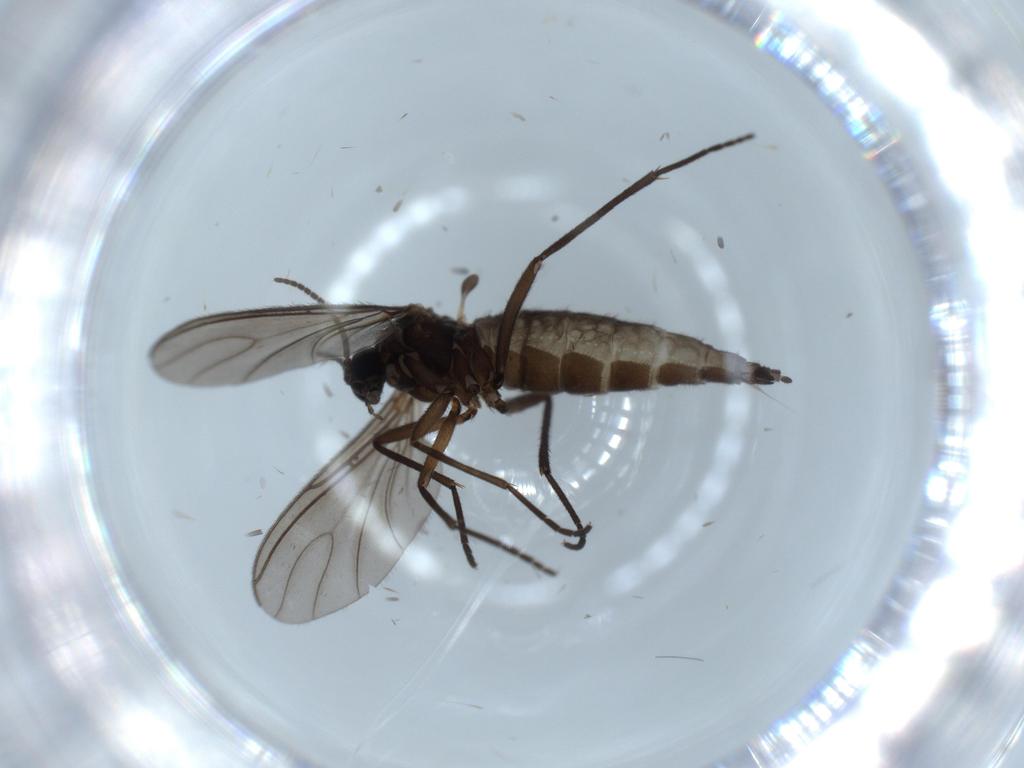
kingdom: Animalia
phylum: Arthropoda
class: Insecta
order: Diptera
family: Sciaridae
